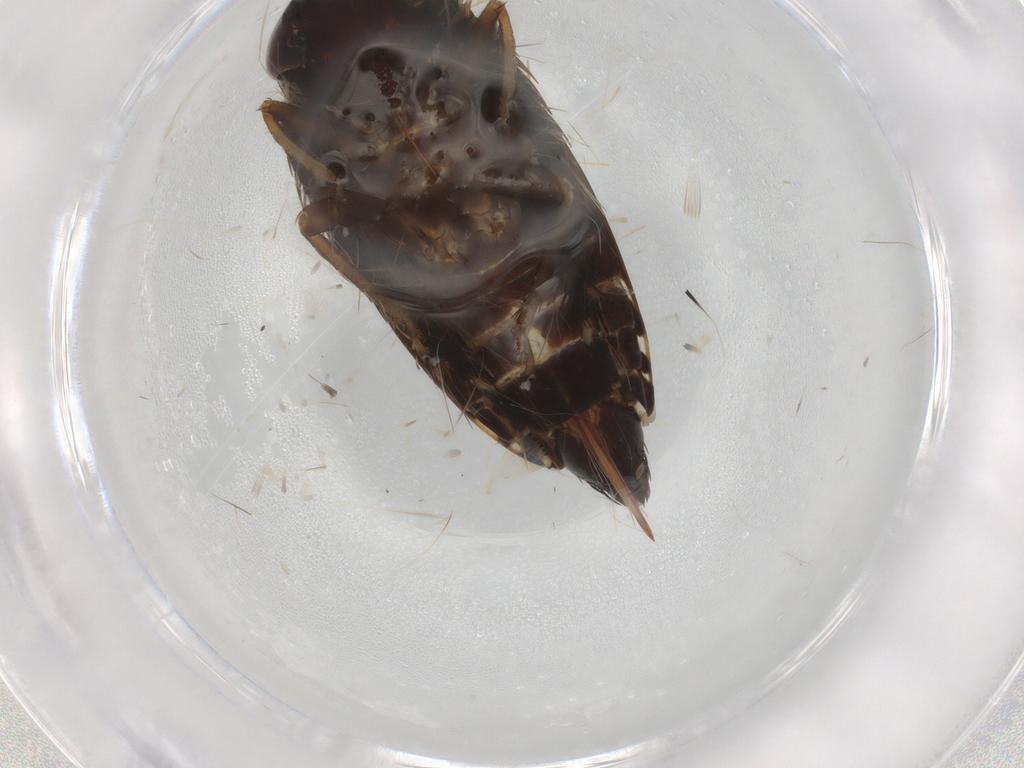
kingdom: Animalia
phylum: Arthropoda
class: Insecta
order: Hemiptera
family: Cicadellidae
